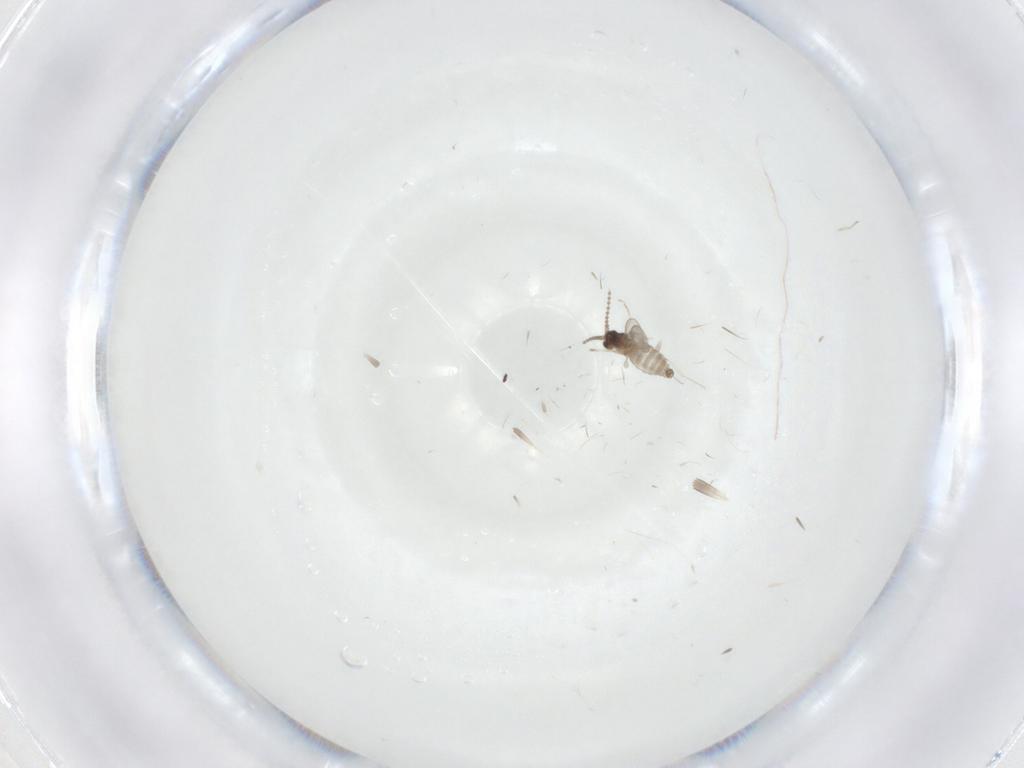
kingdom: Animalia
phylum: Arthropoda
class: Insecta
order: Diptera
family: Cecidomyiidae
